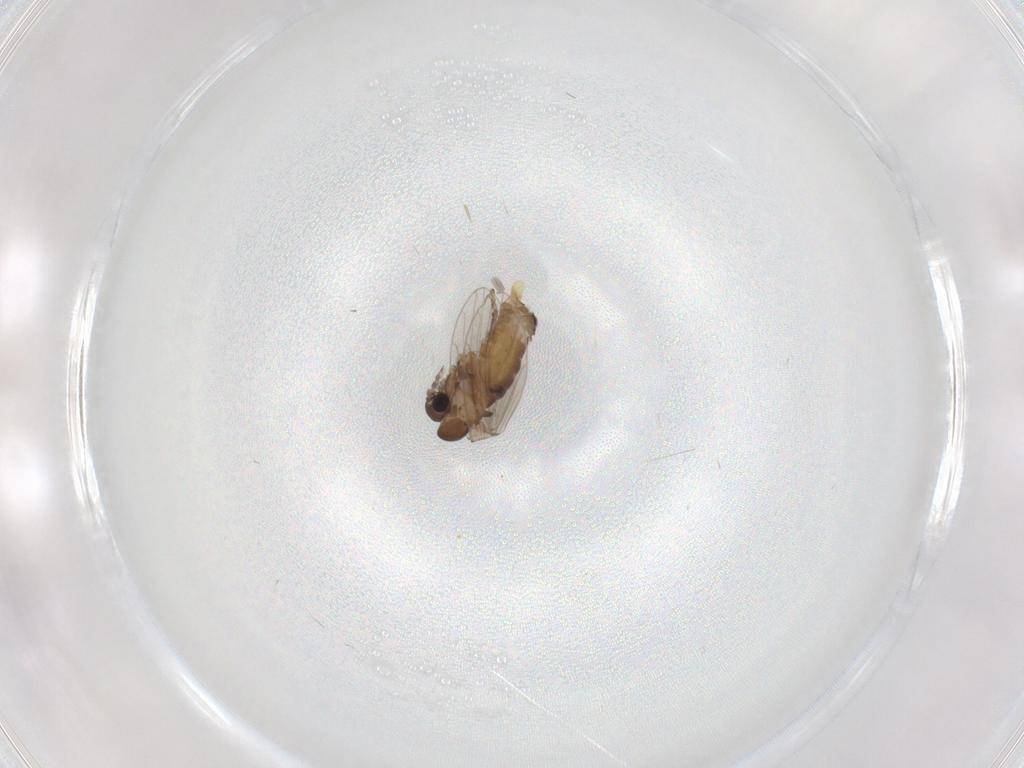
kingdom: Animalia
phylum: Arthropoda
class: Insecta
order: Diptera
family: Psychodidae
